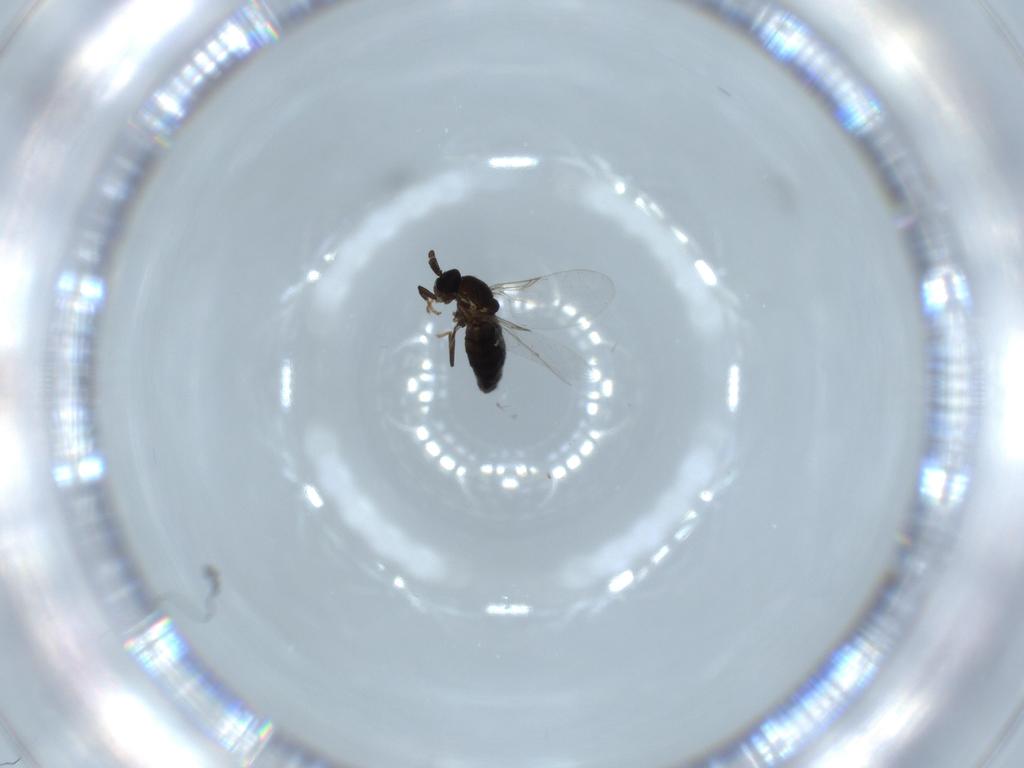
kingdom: Animalia
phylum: Arthropoda
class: Insecta
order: Diptera
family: Scatopsidae
